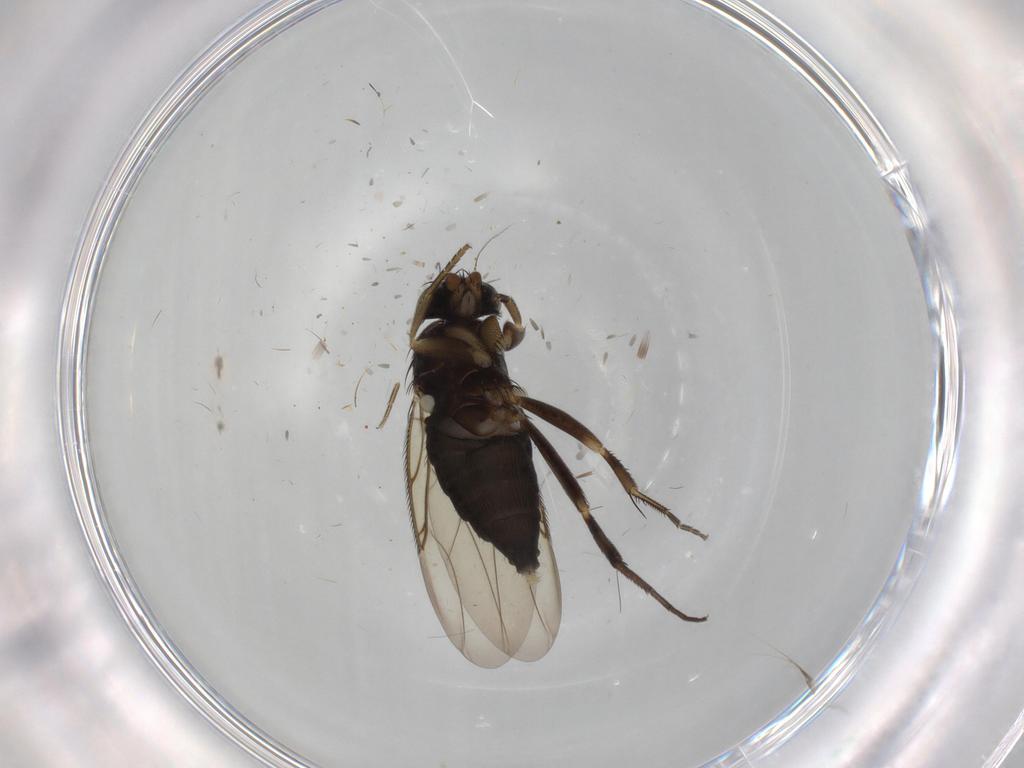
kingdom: Animalia
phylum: Arthropoda
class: Insecta
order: Diptera
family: Phoridae
